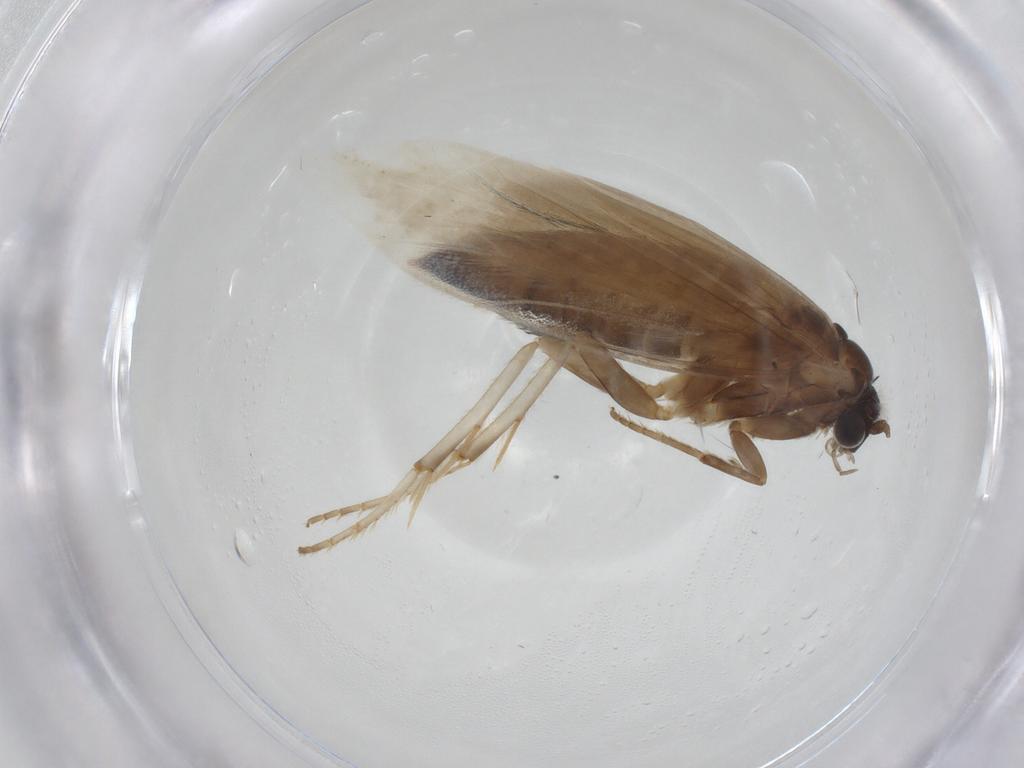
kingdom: Animalia
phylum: Arthropoda
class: Insecta
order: Lepidoptera
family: Tridentaformidae
